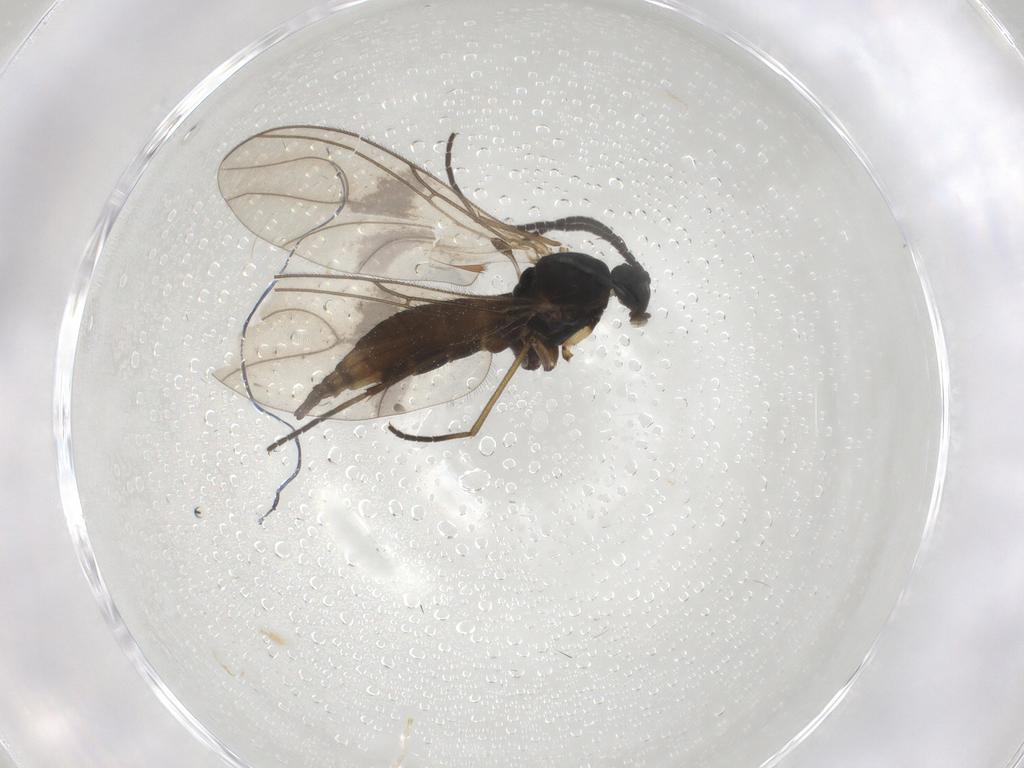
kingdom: Animalia
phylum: Arthropoda
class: Insecta
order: Diptera
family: Sciaridae
